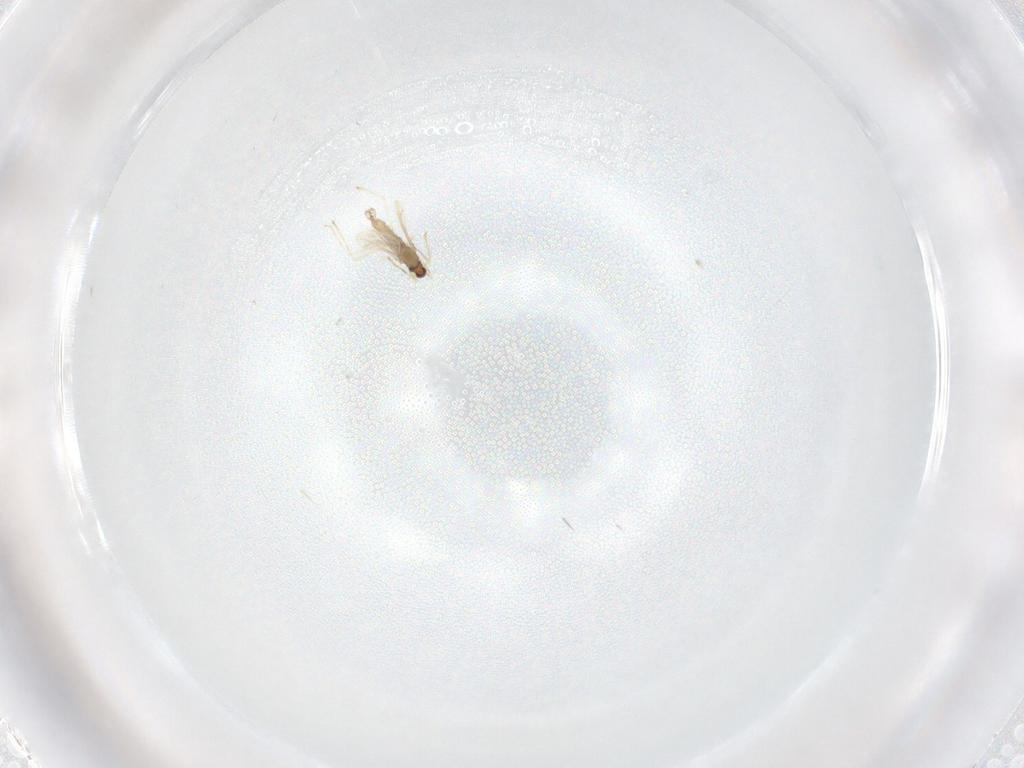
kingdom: Animalia
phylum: Arthropoda
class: Insecta
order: Diptera
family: Cecidomyiidae
